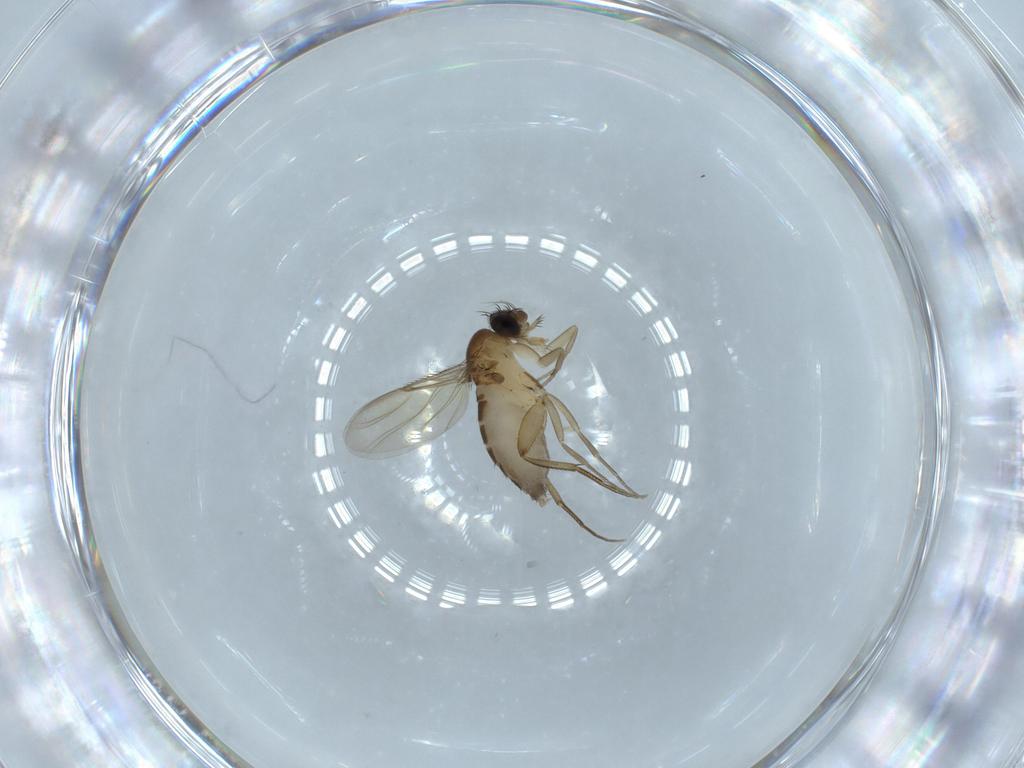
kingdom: Animalia
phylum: Arthropoda
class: Insecta
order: Diptera
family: Phoridae
